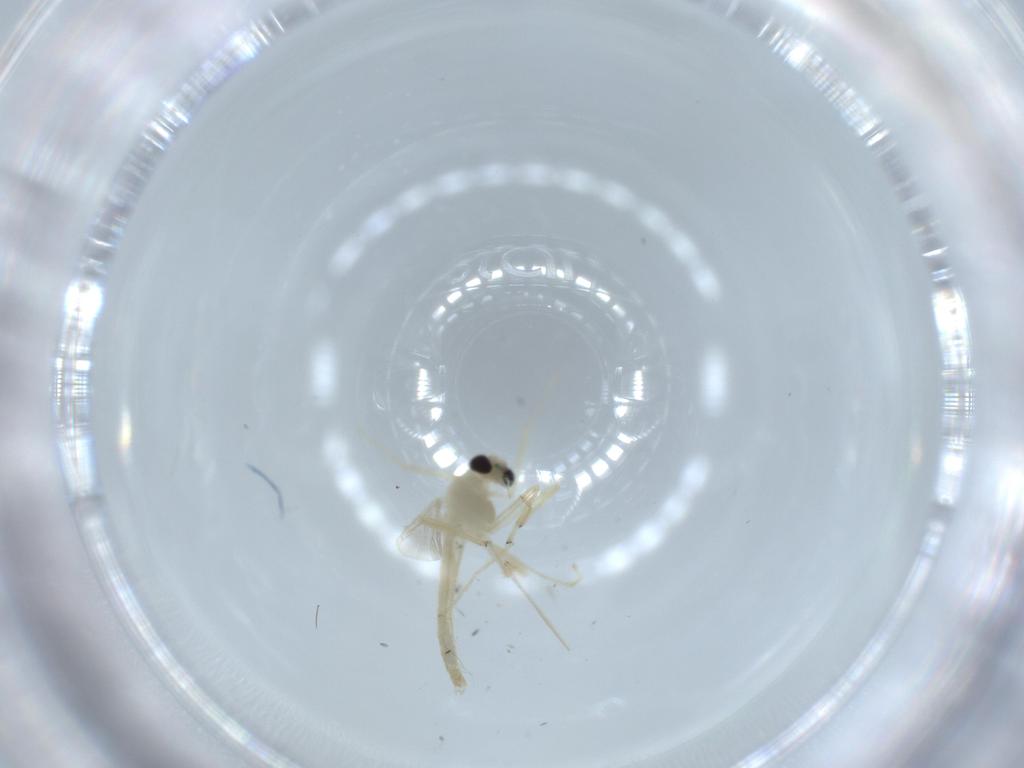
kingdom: Animalia
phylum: Arthropoda
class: Insecta
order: Diptera
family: Chironomidae
